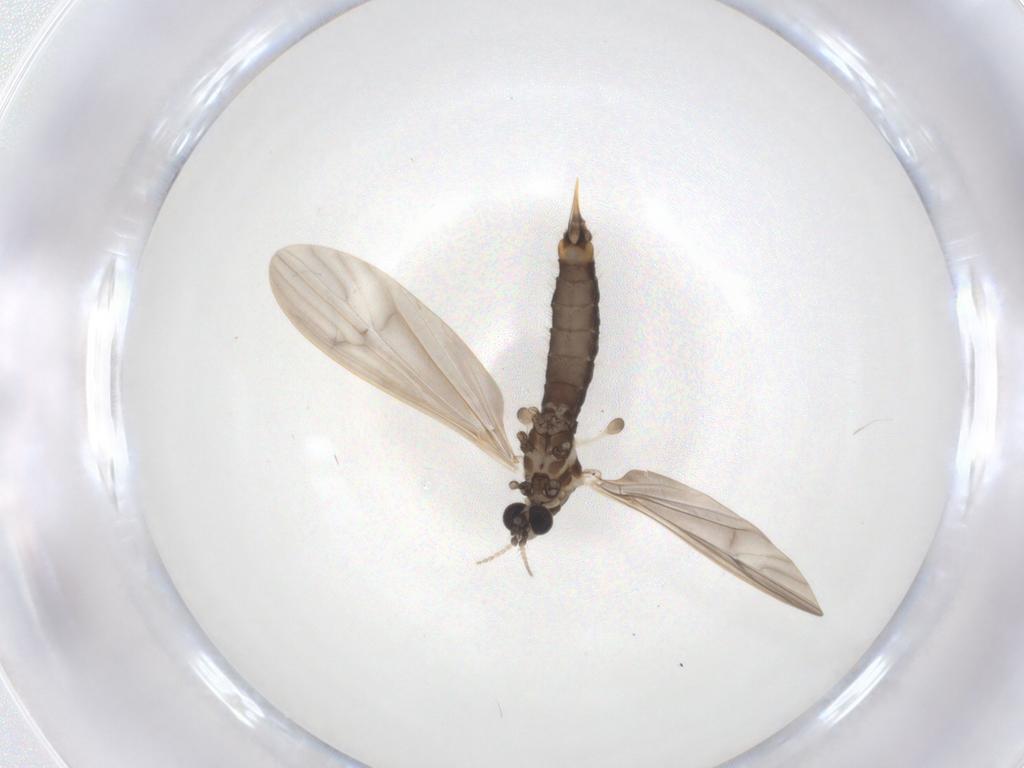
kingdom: Animalia
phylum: Arthropoda
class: Insecta
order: Diptera
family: Limoniidae
